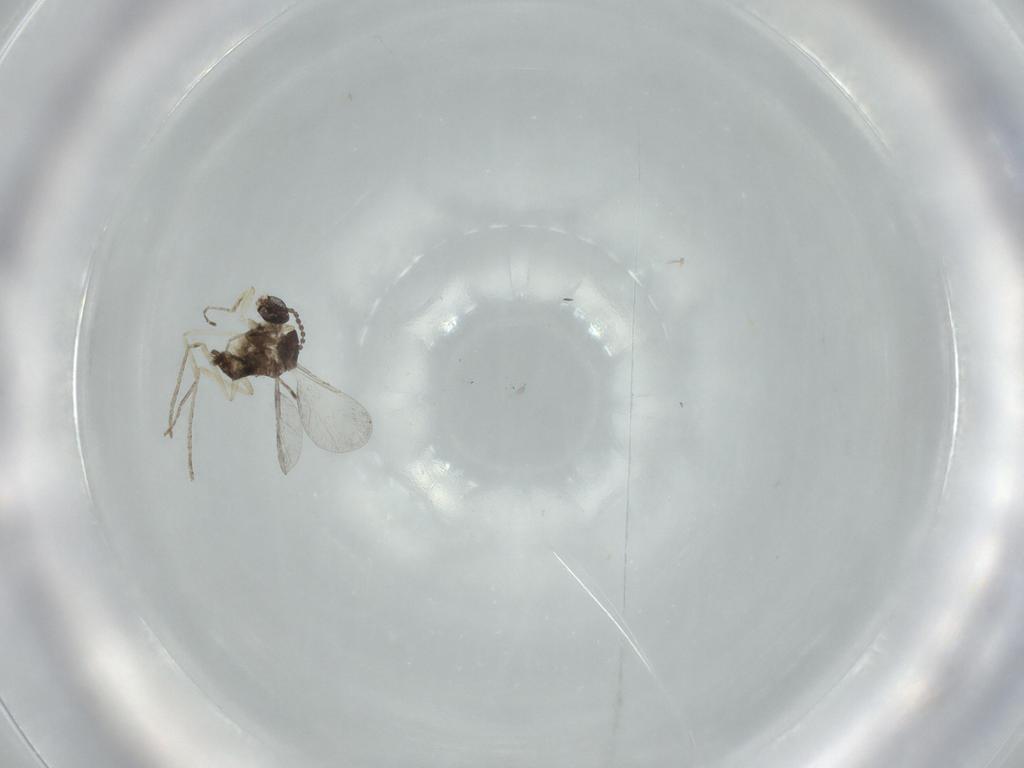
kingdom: Animalia
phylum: Arthropoda
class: Insecta
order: Diptera
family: Cecidomyiidae
